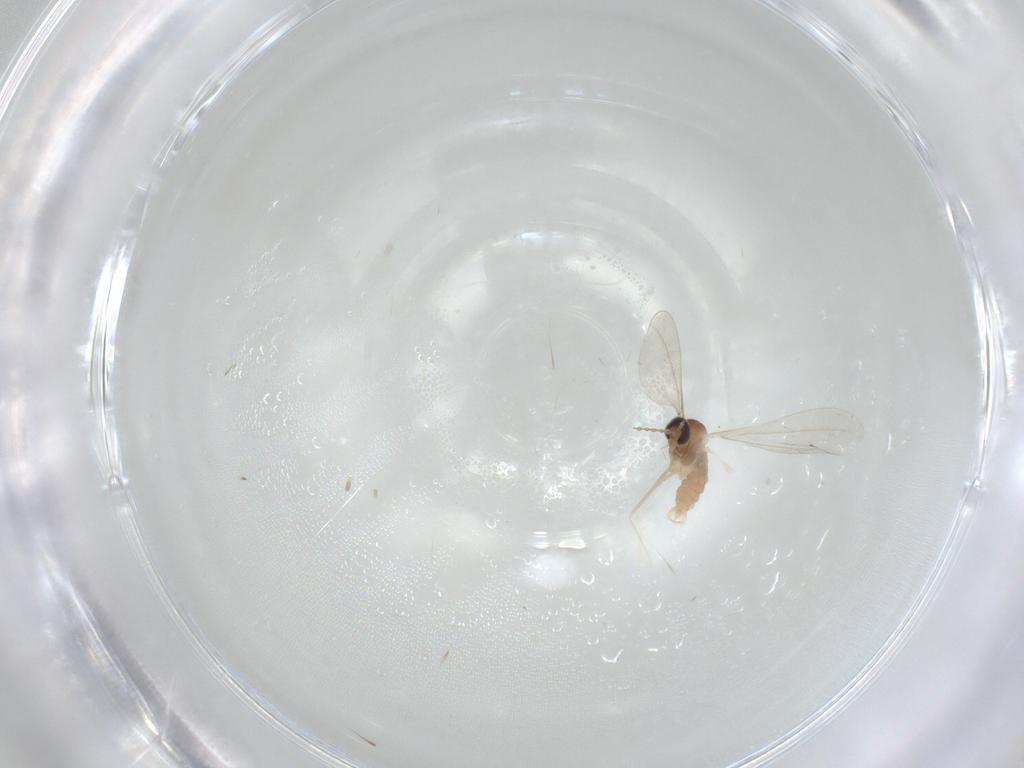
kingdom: Animalia
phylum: Arthropoda
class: Insecta
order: Diptera
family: Cecidomyiidae
